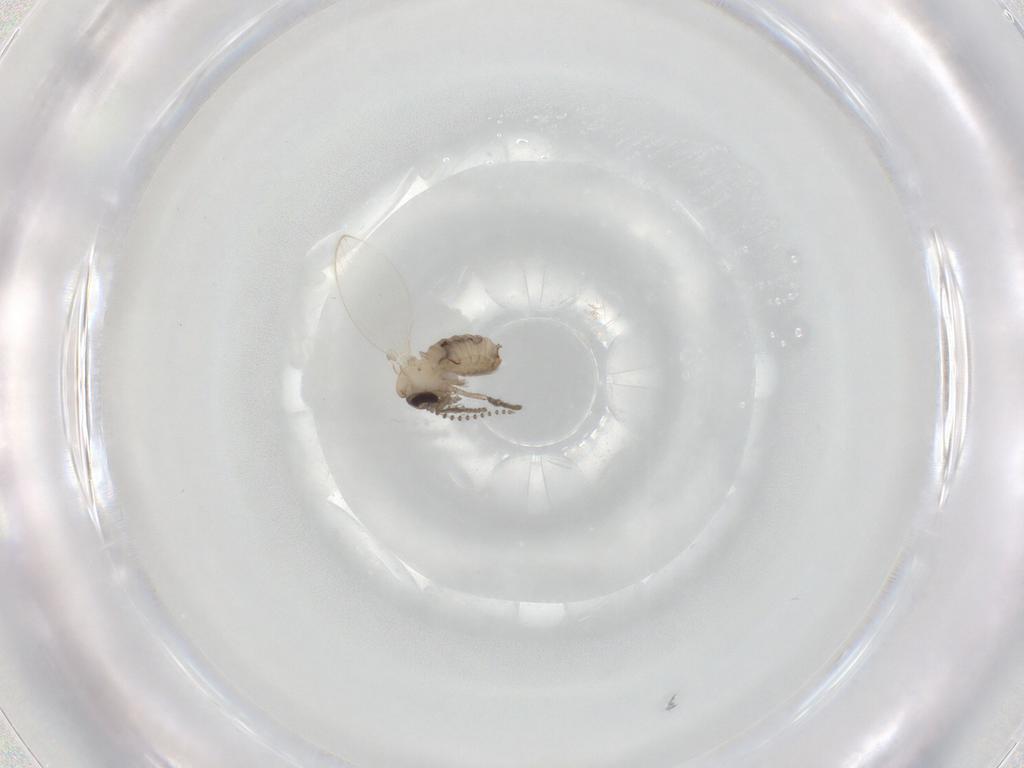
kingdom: Animalia
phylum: Arthropoda
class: Insecta
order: Diptera
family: Psychodidae
